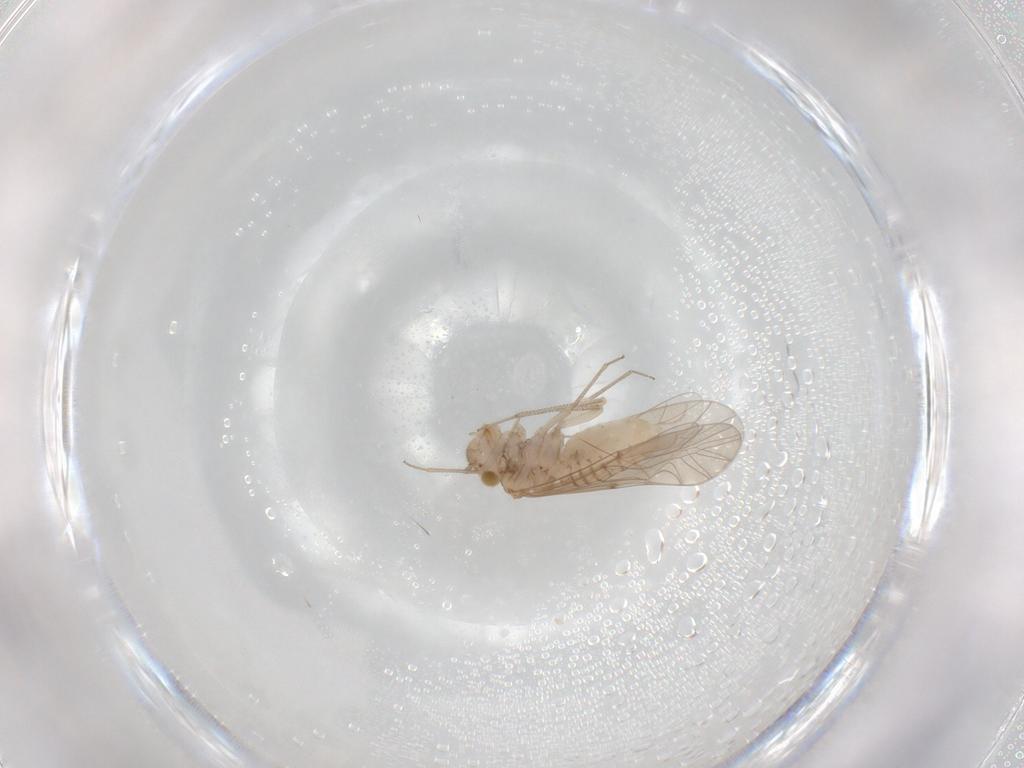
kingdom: Animalia
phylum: Arthropoda
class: Insecta
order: Psocodea
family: Lachesillidae
